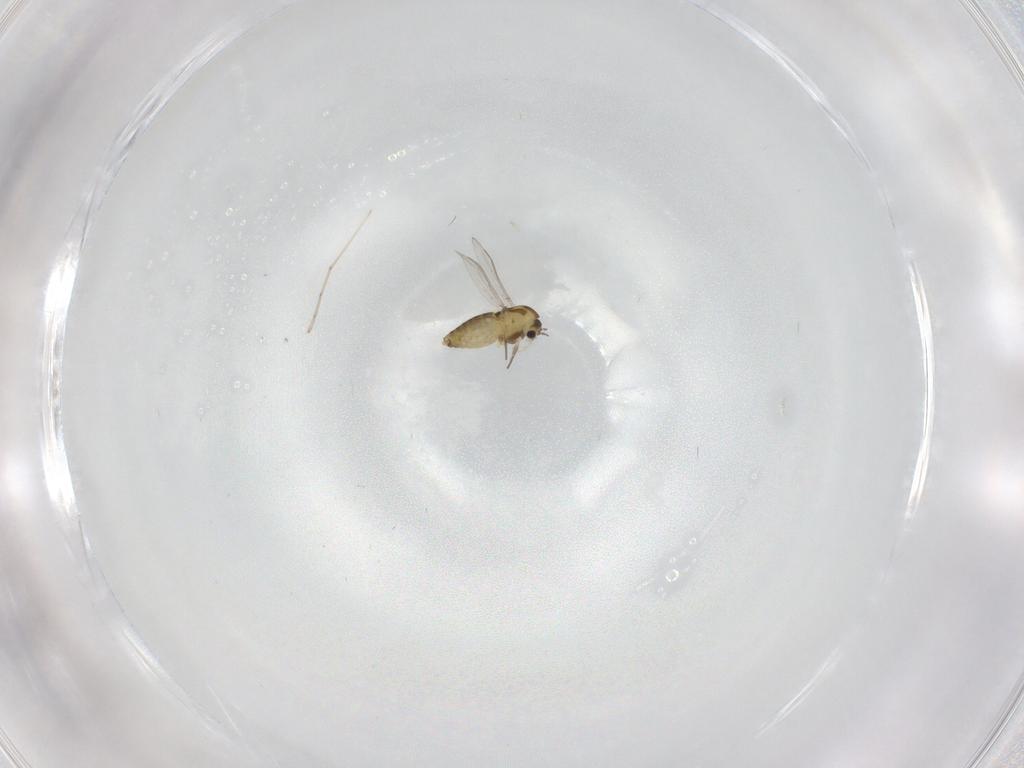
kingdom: Animalia
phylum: Arthropoda
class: Insecta
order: Diptera
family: Chironomidae
